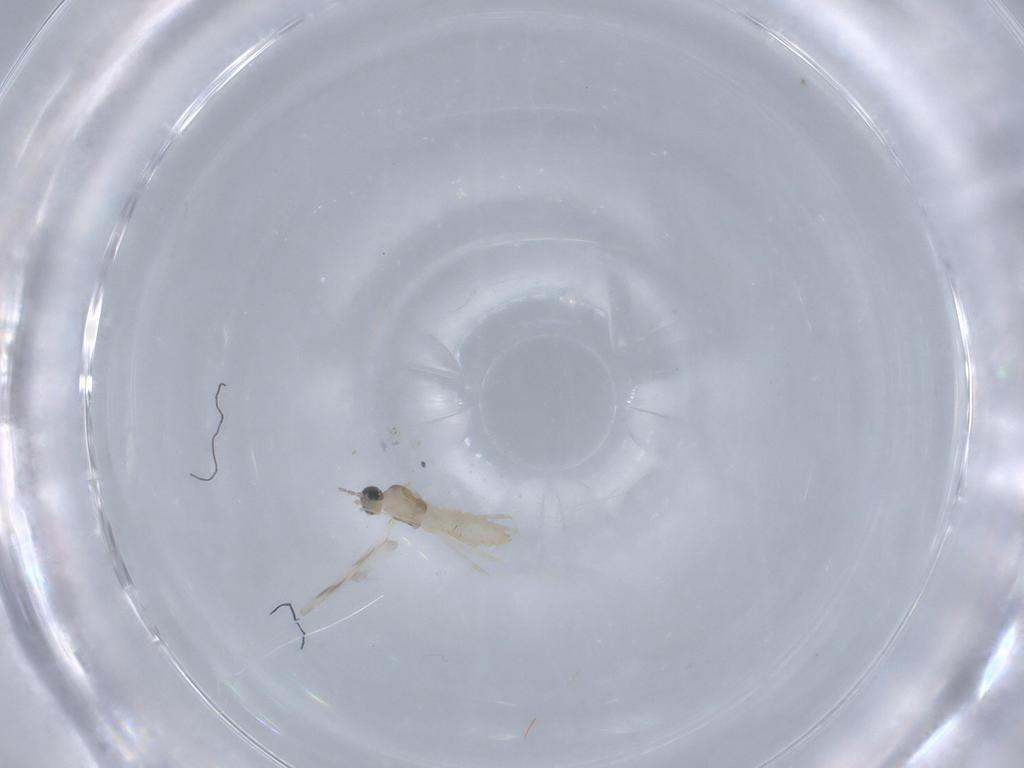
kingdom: Animalia
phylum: Arthropoda
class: Insecta
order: Diptera
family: Cecidomyiidae
